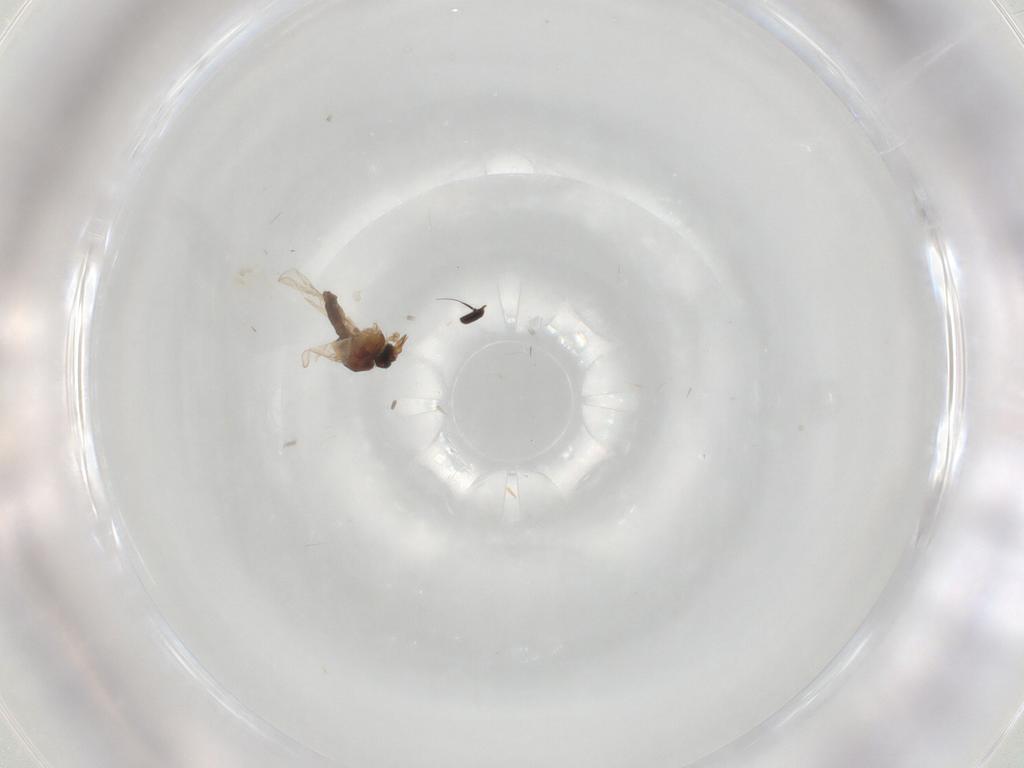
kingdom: Animalia
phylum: Arthropoda
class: Insecta
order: Diptera
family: Muscidae
